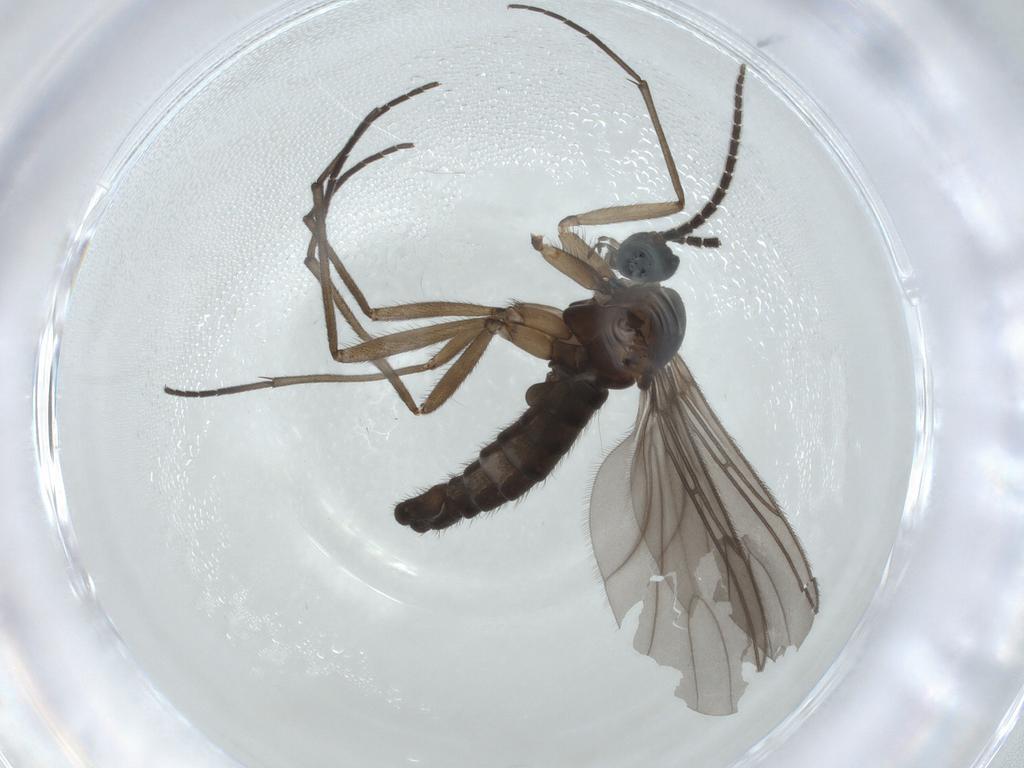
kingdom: Animalia
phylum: Arthropoda
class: Insecta
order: Diptera
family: Sciaridae
